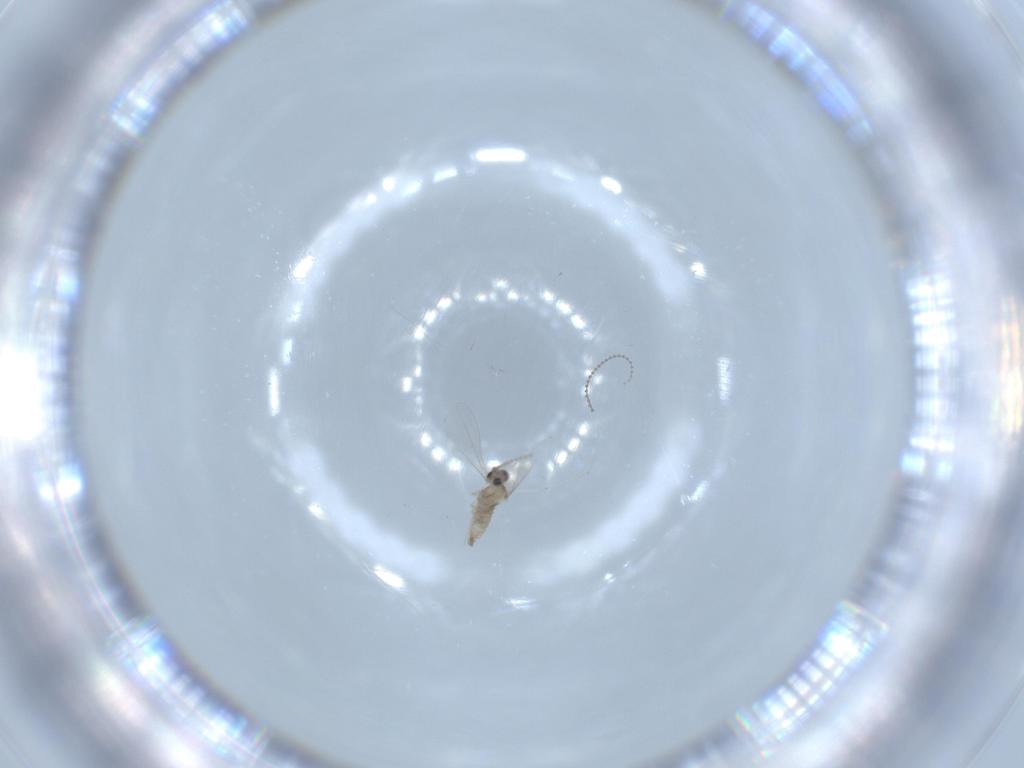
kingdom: Animalia
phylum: Arthropoda
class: Insecta
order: Diptera
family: Cecidomyiidae
